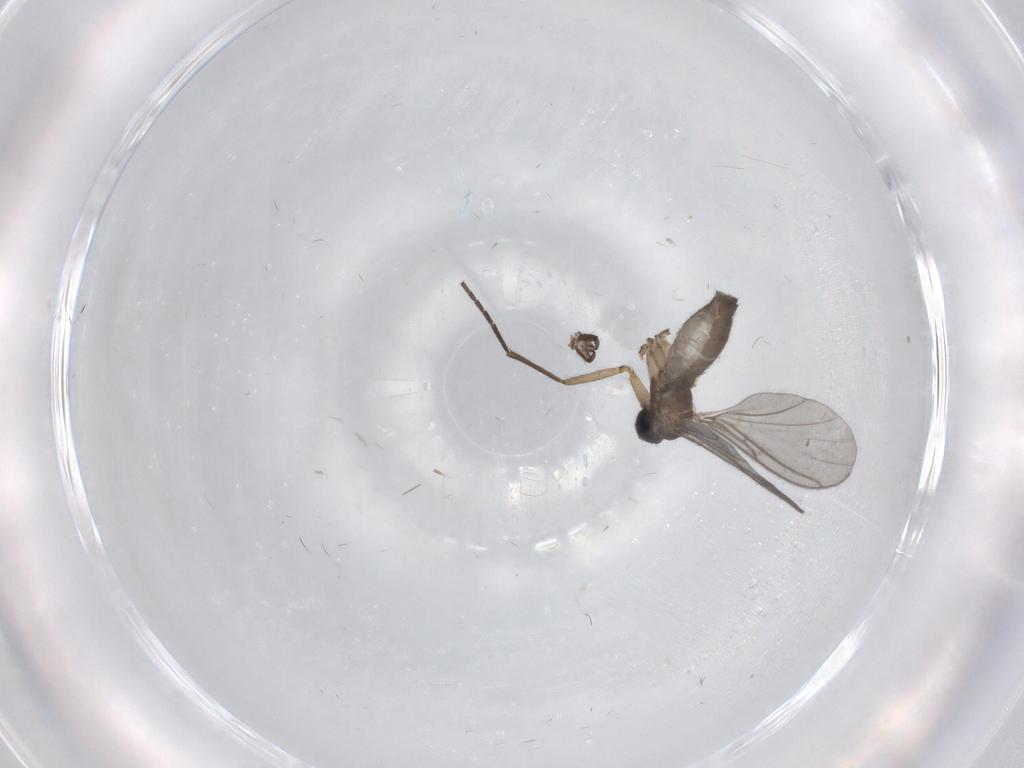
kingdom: Animalia
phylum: Arthropoda
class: Insecta
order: Diptera
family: Sciaridae
